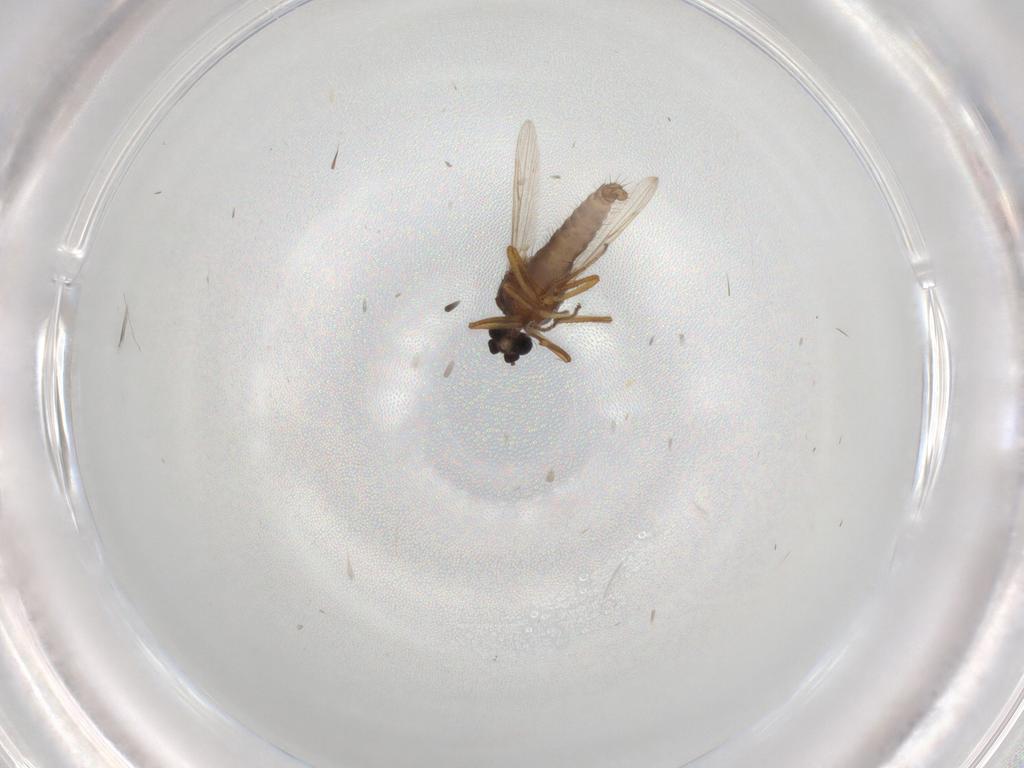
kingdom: Animalia
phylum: Arthropoda
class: Insecta
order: Diptera
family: Ceratopogonidae
